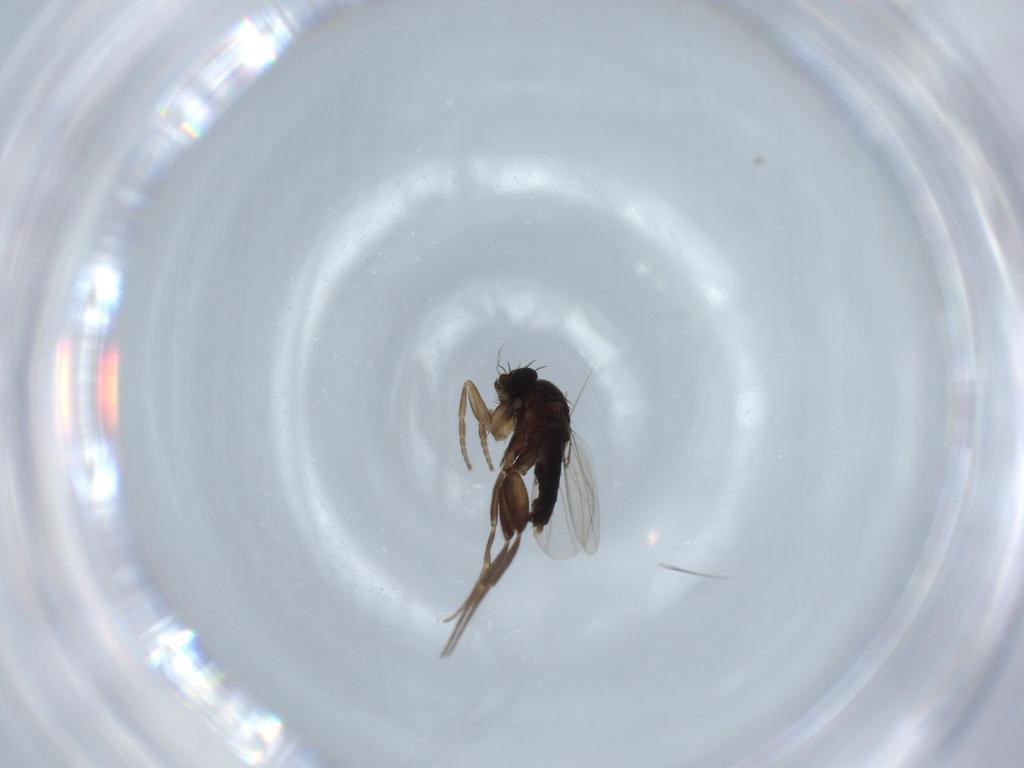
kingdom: Animalia
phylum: Arthropoda
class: Insecta
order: Diptera
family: Phoridae
